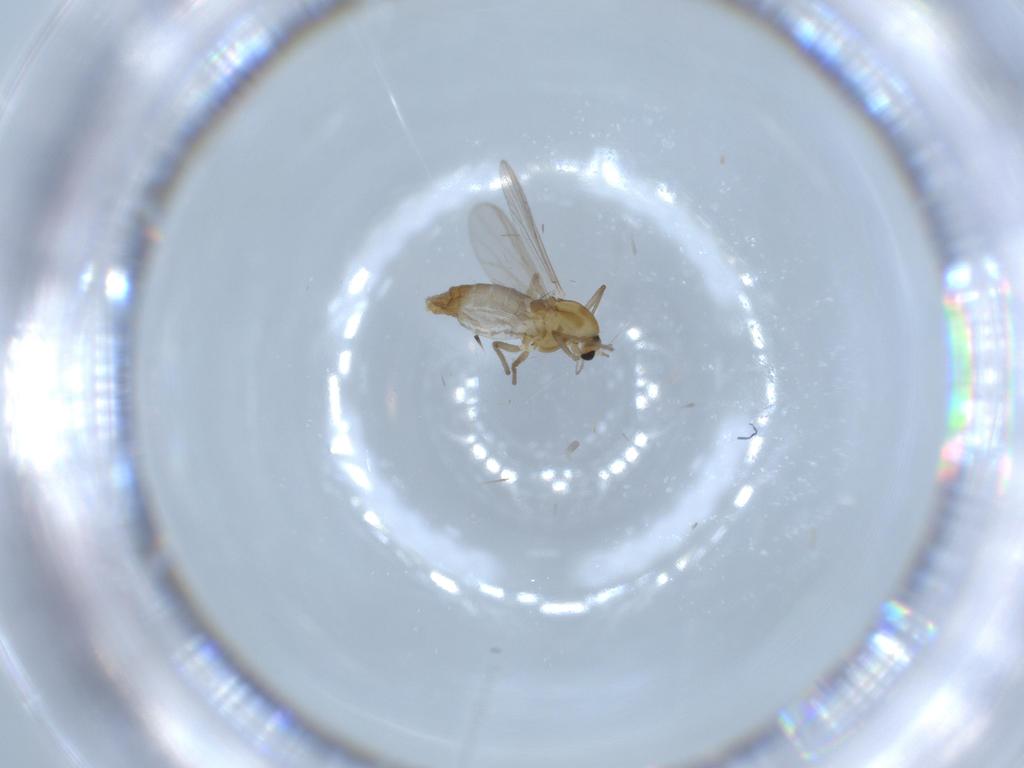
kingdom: Animalia
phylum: Arthropoda
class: Insecta
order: Diptera
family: Chironomidae
